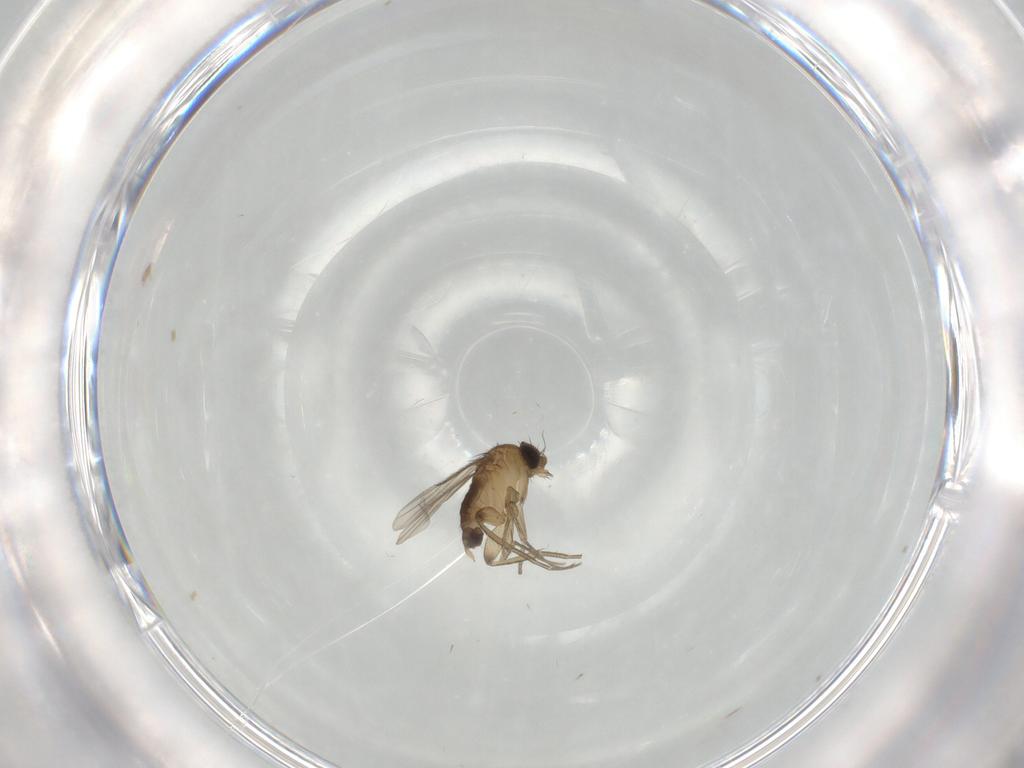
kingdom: Animalia
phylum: Arthropoda
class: Insecta
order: Diptera
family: Phoridae
